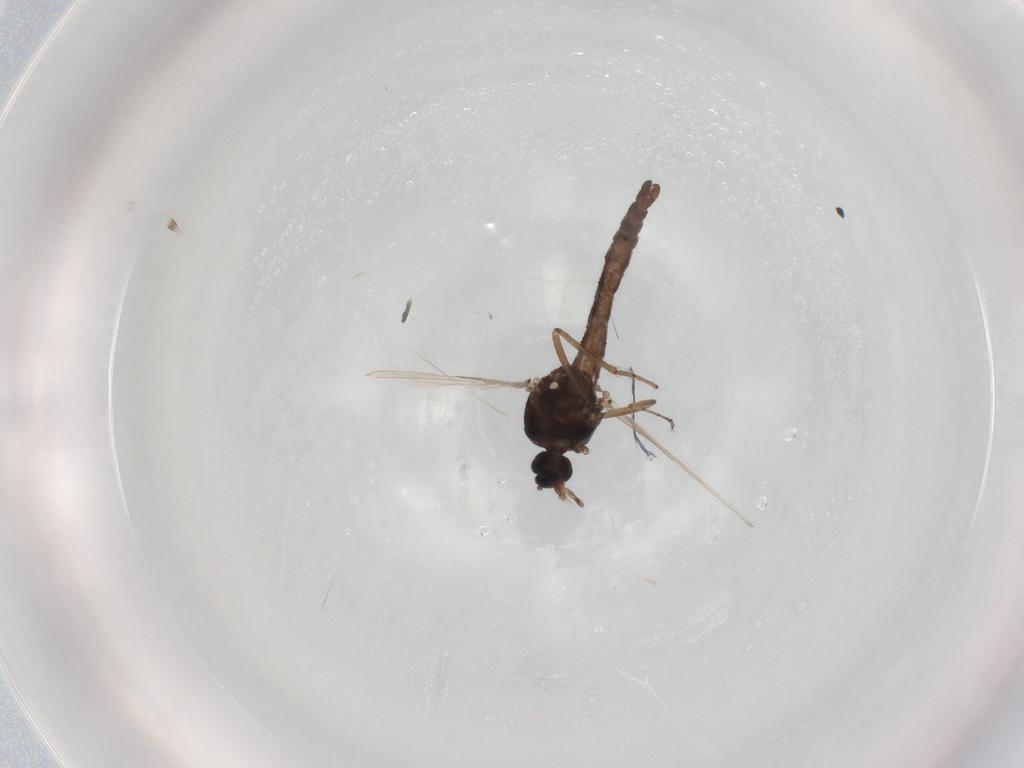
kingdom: Animalia
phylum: Arthropoda
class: Insecta
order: Diptera
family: Ceratopogonidae
